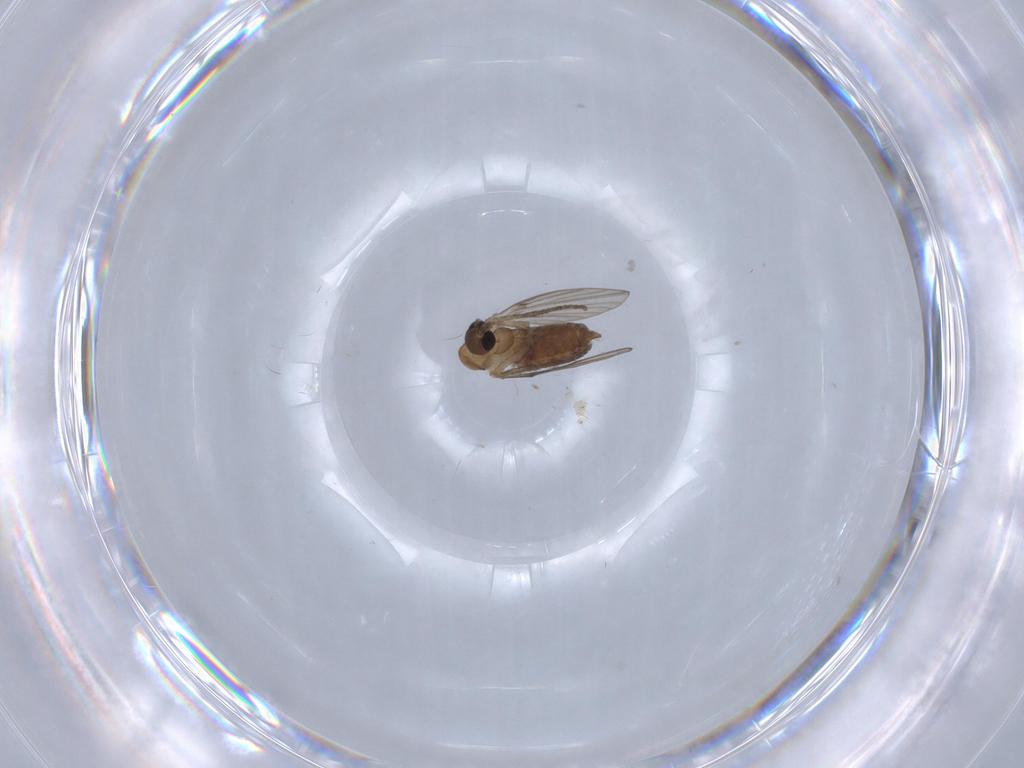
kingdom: Animalia
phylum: Arthropoda
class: Insecta
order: Diptera
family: Psychodidae
